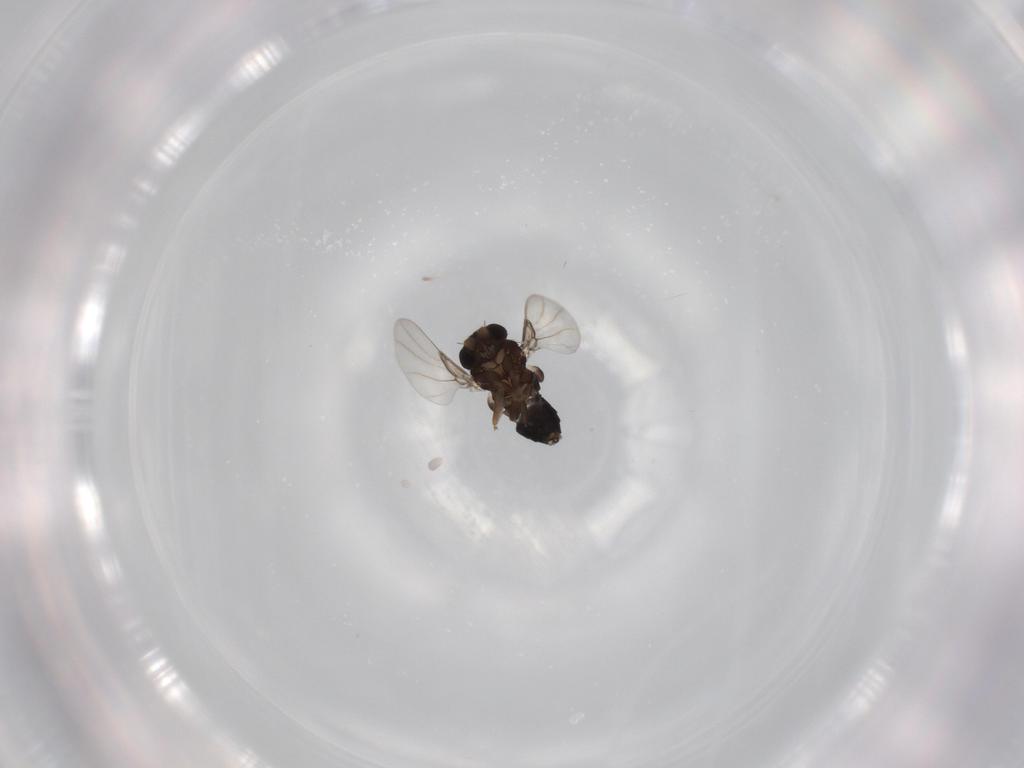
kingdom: Animalia
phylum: Arthropoda
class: Insecta
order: Diptera
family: Phoridae
